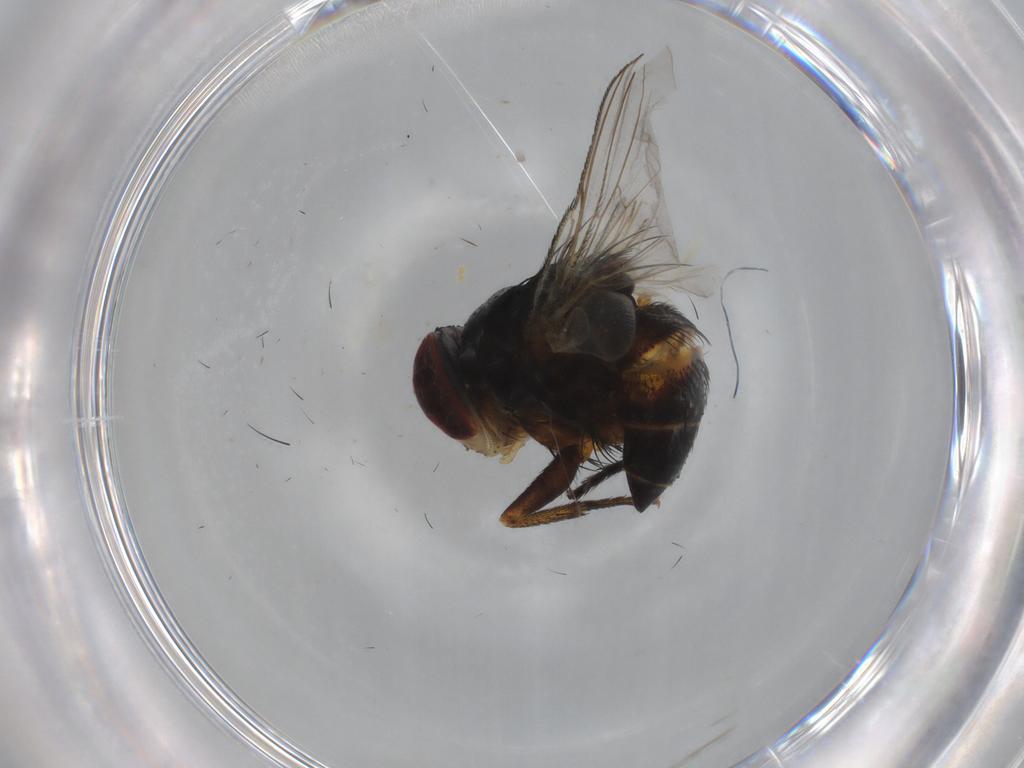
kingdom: Animalia
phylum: Arthropoda
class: Insecta
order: Diptera
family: Tachinidae
